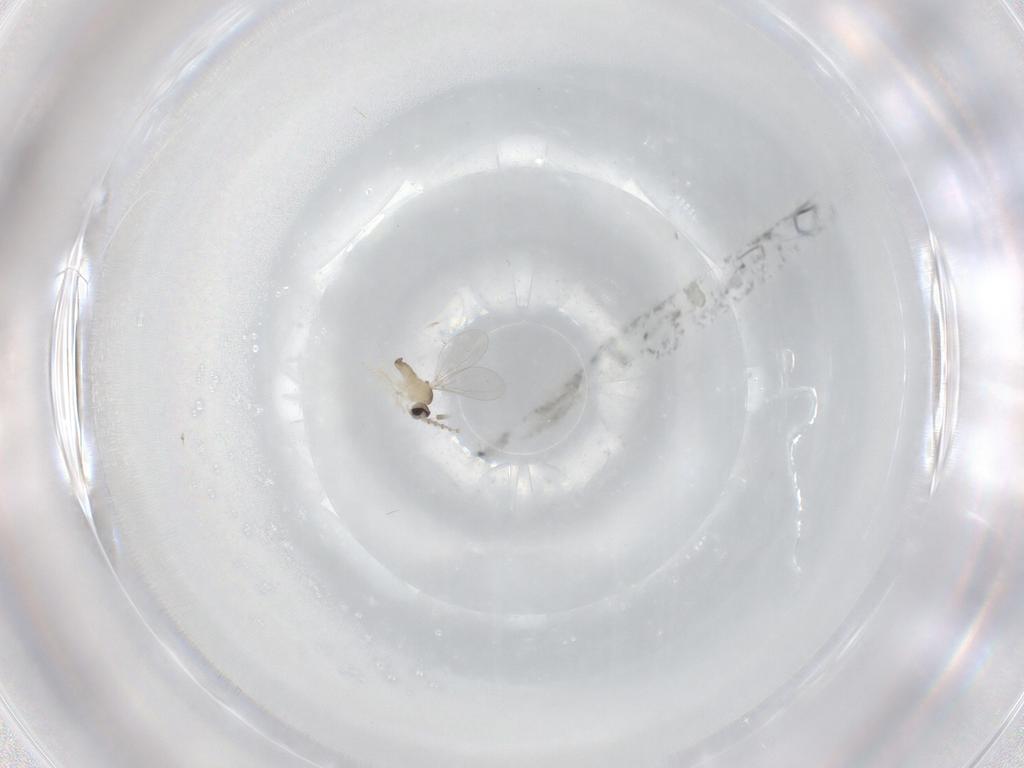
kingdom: Animalia
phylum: Arthropoda
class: Insecta
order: Diptera
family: Cecidomyiidae
